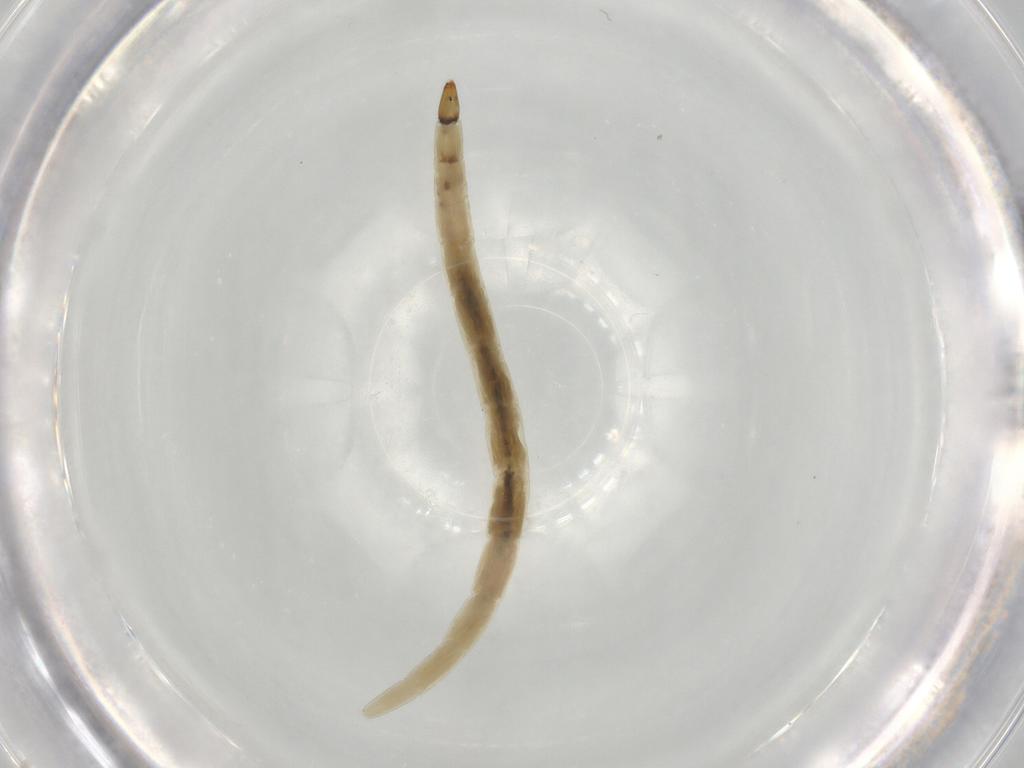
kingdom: Animalia
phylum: Arthropoda
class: Insecta
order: Diptera
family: Ceratopogonidae
